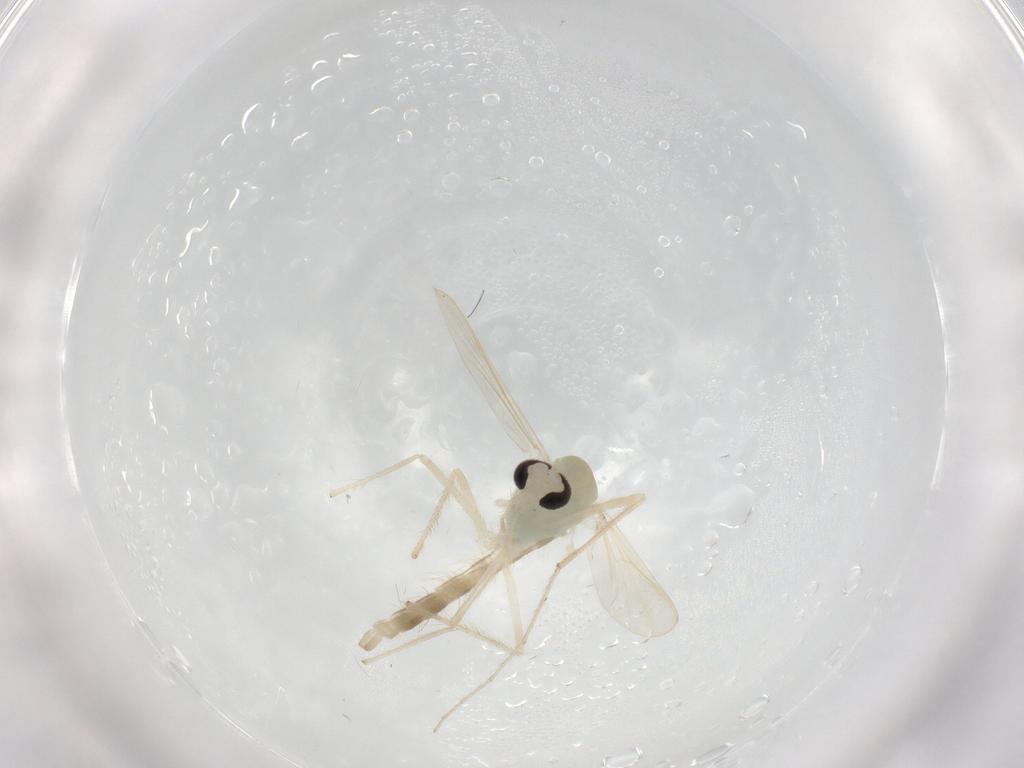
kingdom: Animalia
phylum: Arthropoda
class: Insecta
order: Diptera
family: Chironomidae
